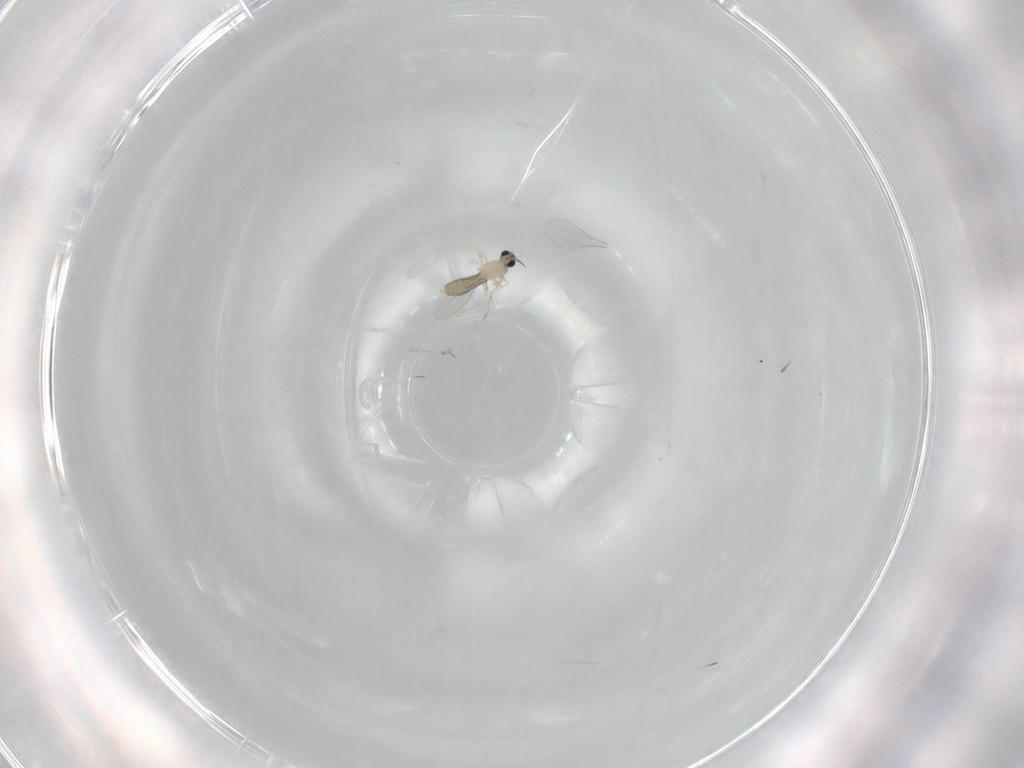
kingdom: Animalia
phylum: Arthropoda
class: Insecta
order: Diptera
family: Cecidomyiidae
